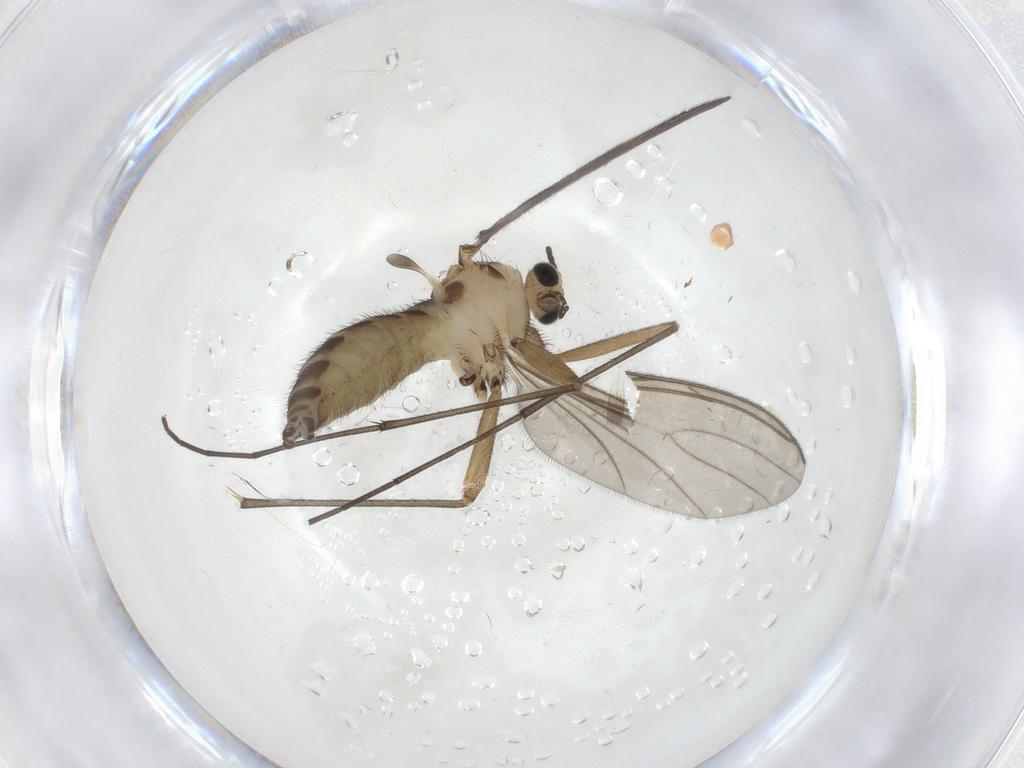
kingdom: Animalia
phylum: Arthropoda
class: Insecta
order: Diptera
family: Sciaridae
